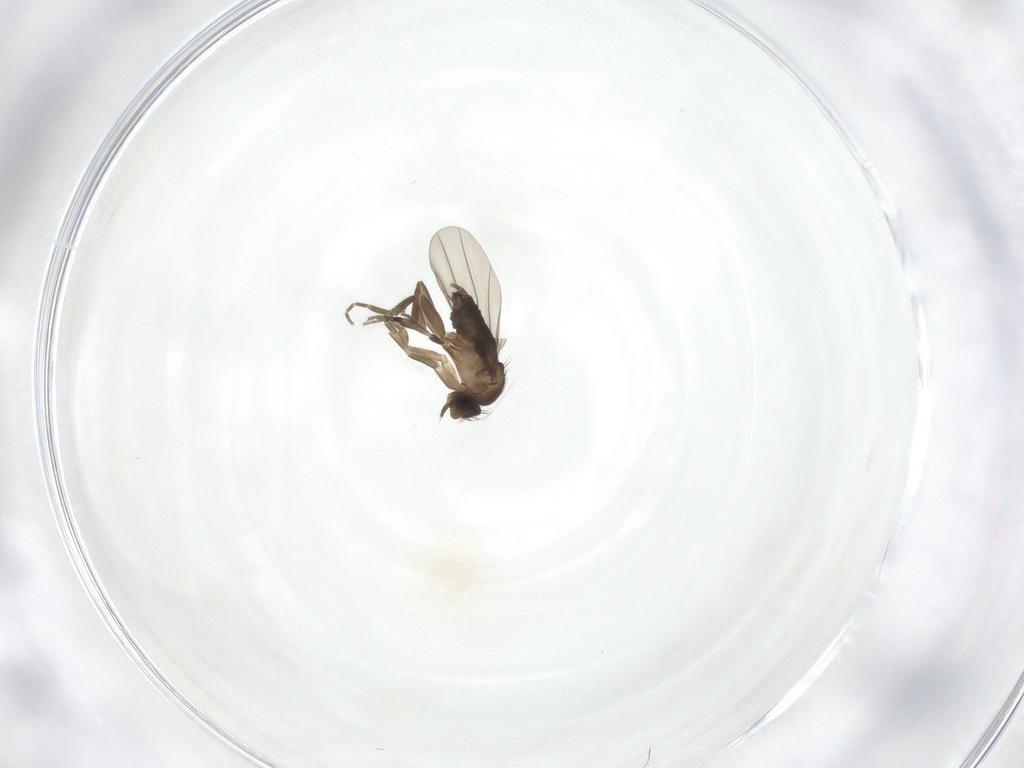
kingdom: Animalia
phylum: Arthropoda
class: Insecta
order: Diptera
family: Phoridae
